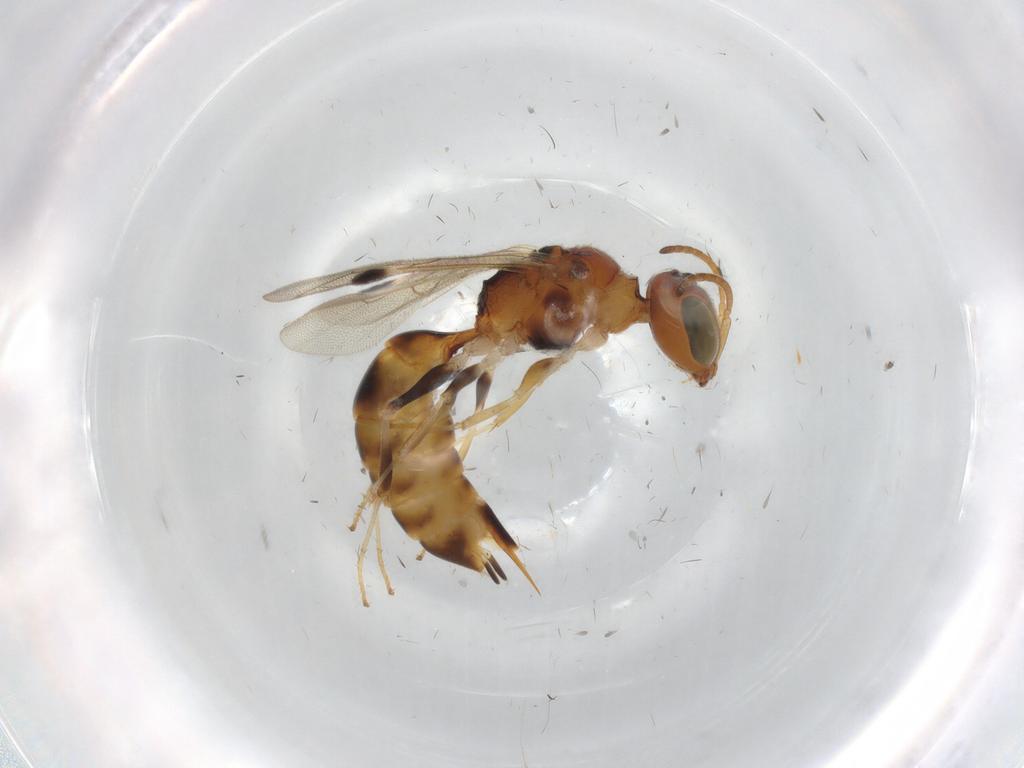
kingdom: Animalia
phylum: Arthropoda
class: Insecta
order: Hymenoptera
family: Pemphredonidae
